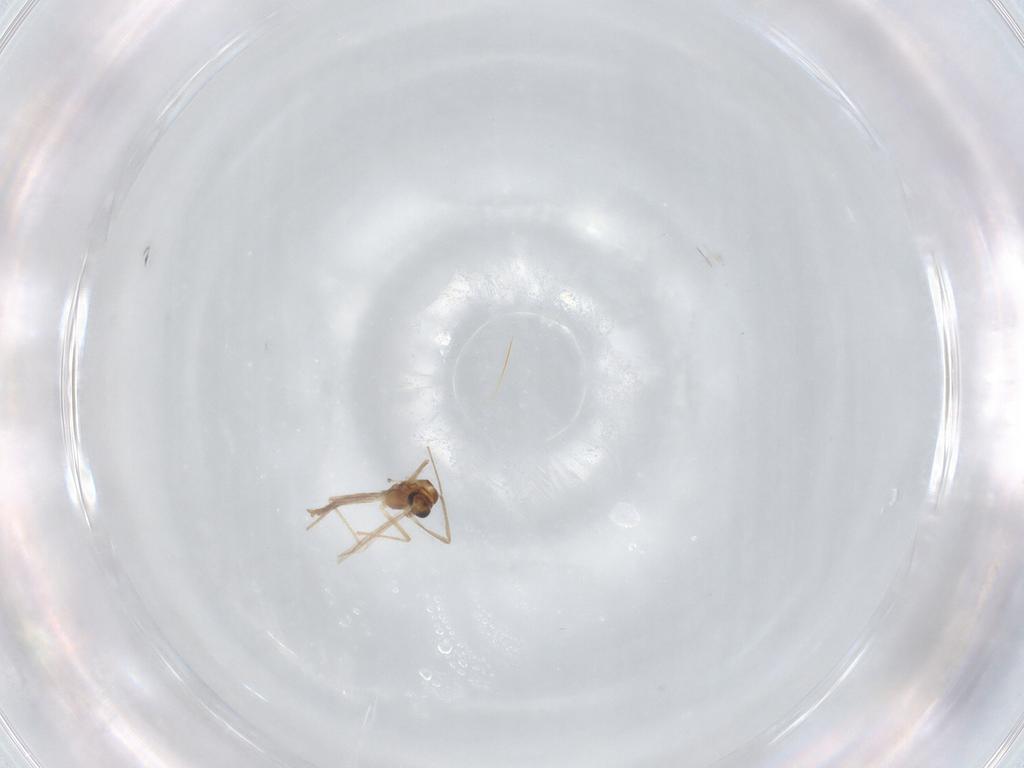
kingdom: Animalia
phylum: Arthropoda
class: Insecta
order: Diptera
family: Chironomidae
